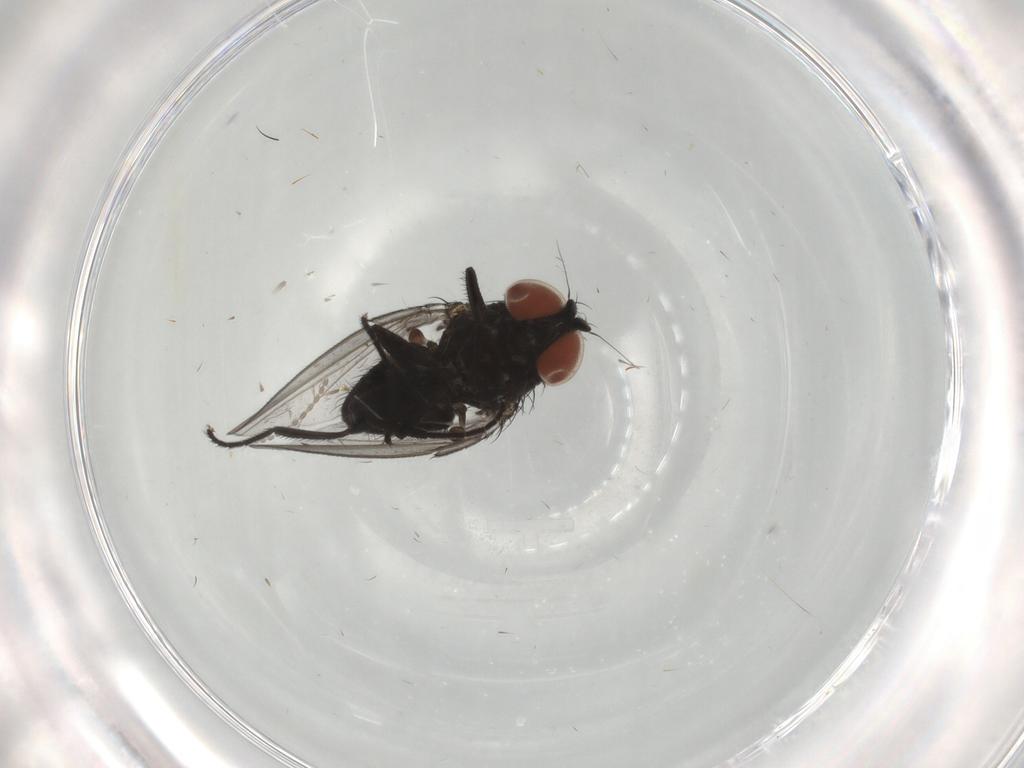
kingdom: Animalia
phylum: Arthropoda
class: Insecta
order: Diptera
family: Milichiidae
